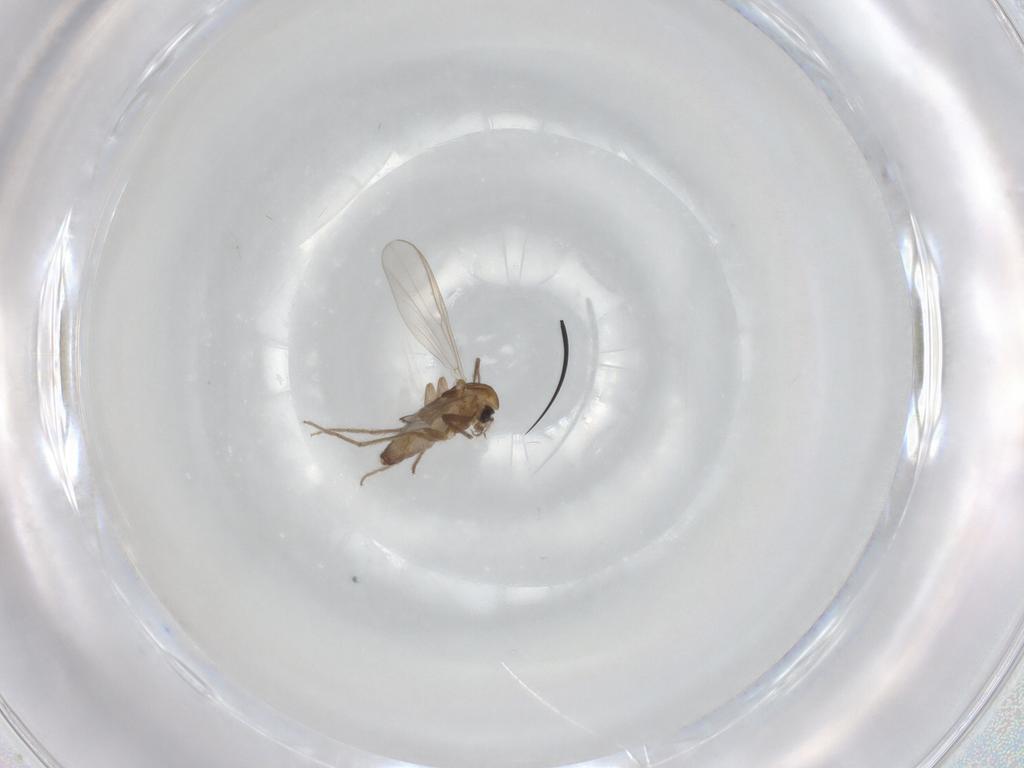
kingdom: Animalia
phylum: Arthropoda
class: Insecta
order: Diptera
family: Chironomidae
